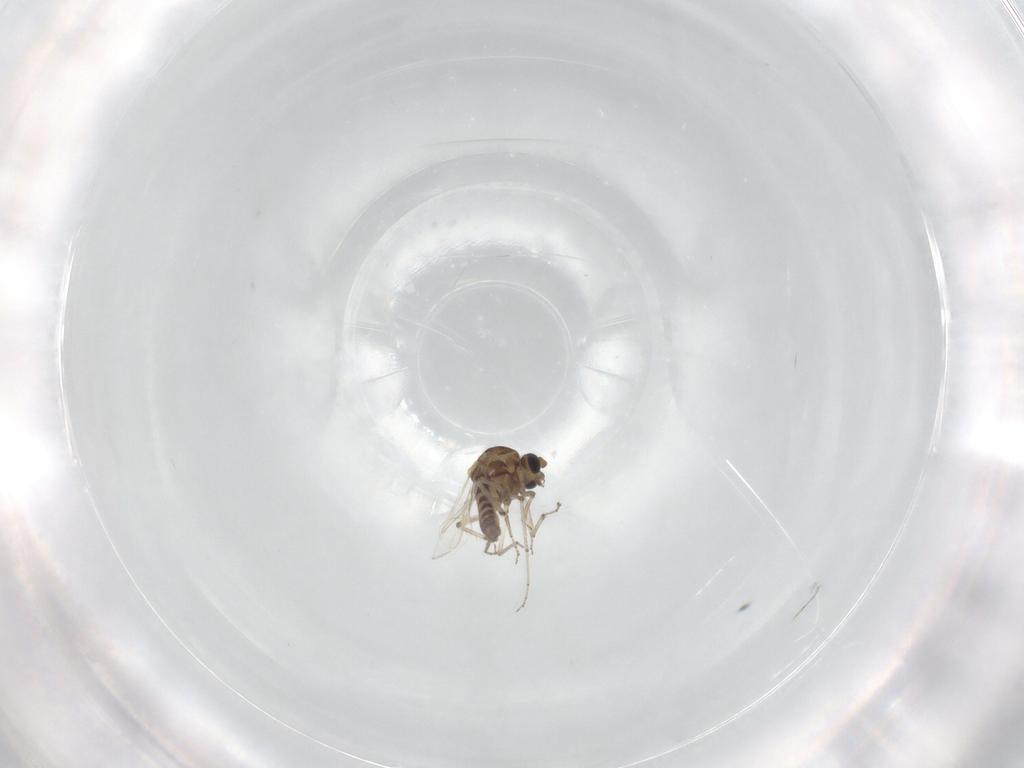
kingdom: Animalia
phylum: Arthropoda
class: Insecta
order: Diptera
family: Ceratopogonidae
